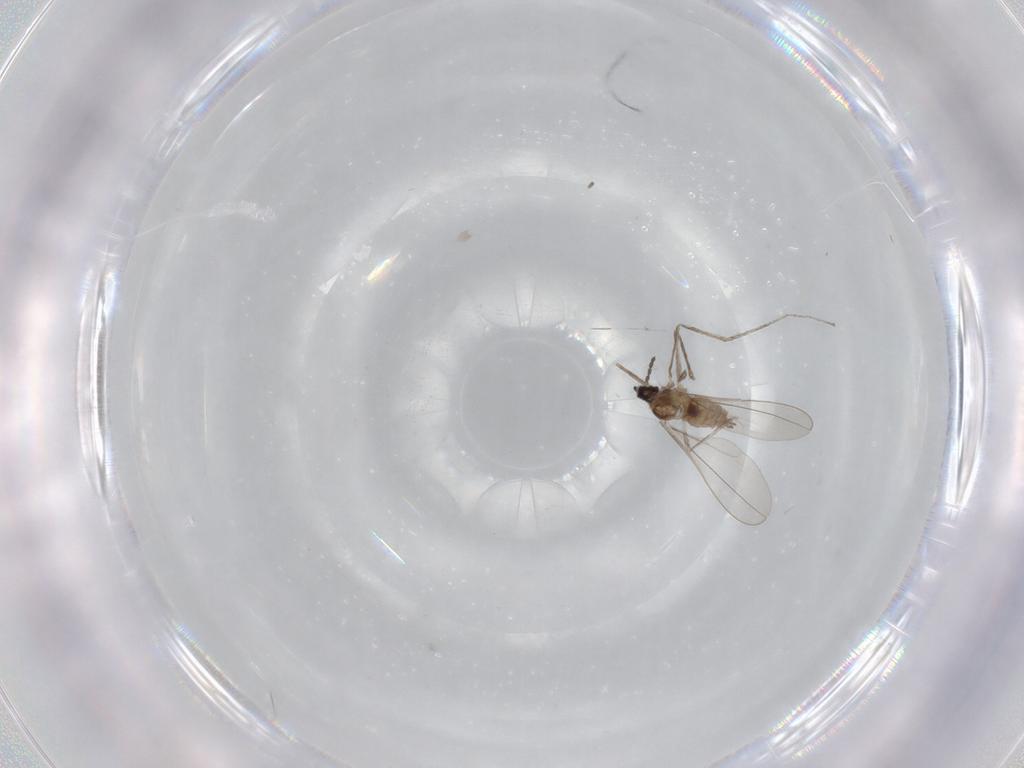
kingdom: Animalia
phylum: Arthropoda
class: Insecta
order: Diptera
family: Cecidomyiidae
